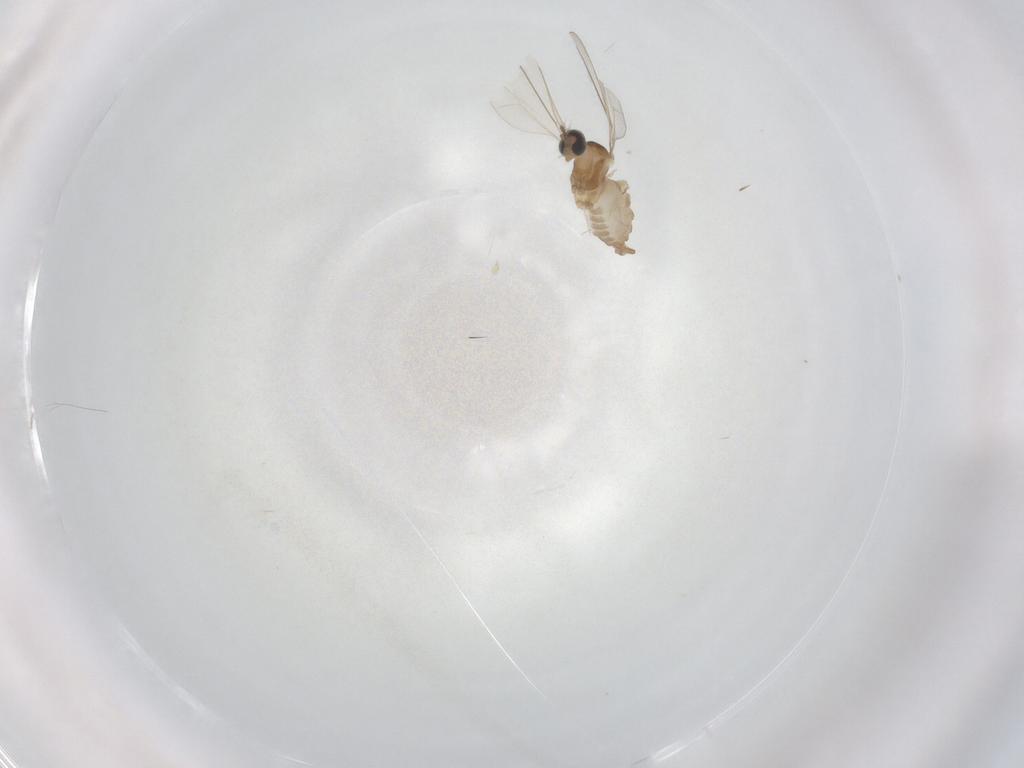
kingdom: Animalia
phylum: Arthropoda
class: Insecta
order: Diptera
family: Cecidomyiidae
